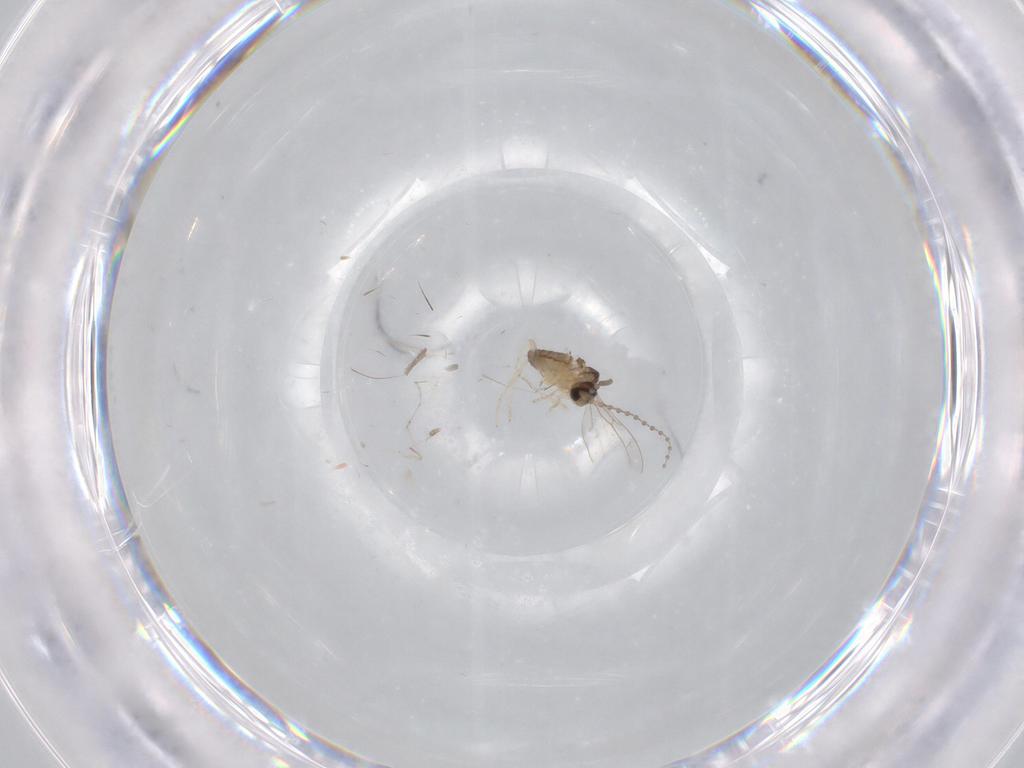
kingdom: Animalia
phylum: Arthropoda
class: Insecta
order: Diptera
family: Cecidomyiidae
